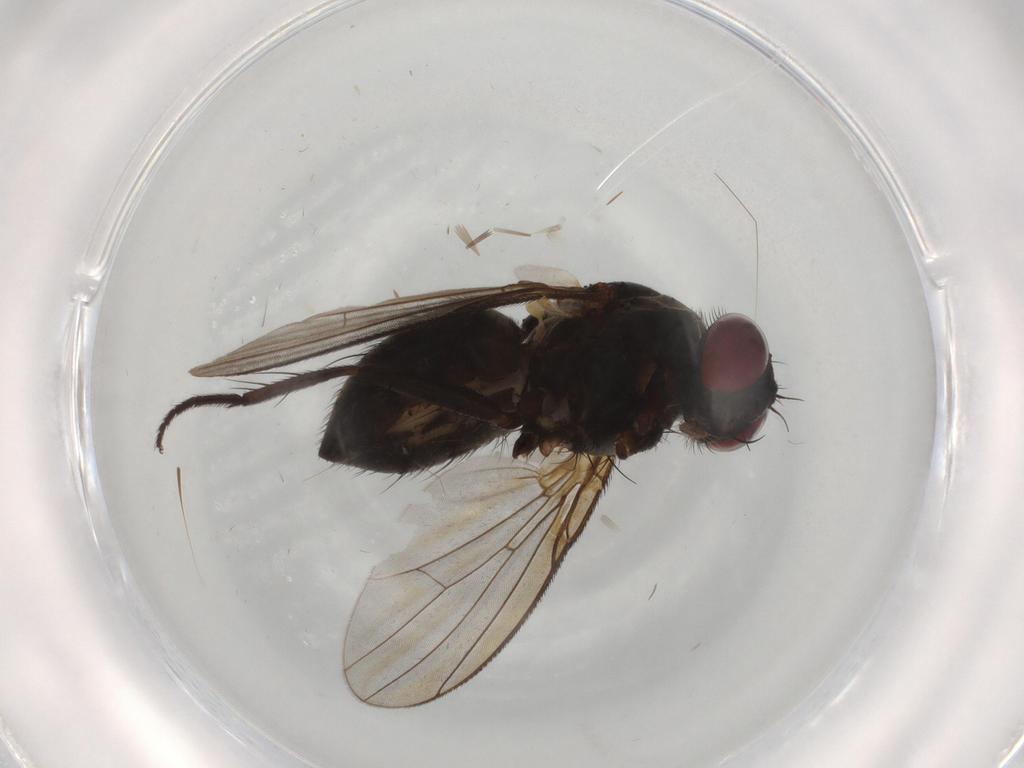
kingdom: Animalia
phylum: Arthropoda
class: Insecta
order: Diptera
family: Muscidae
